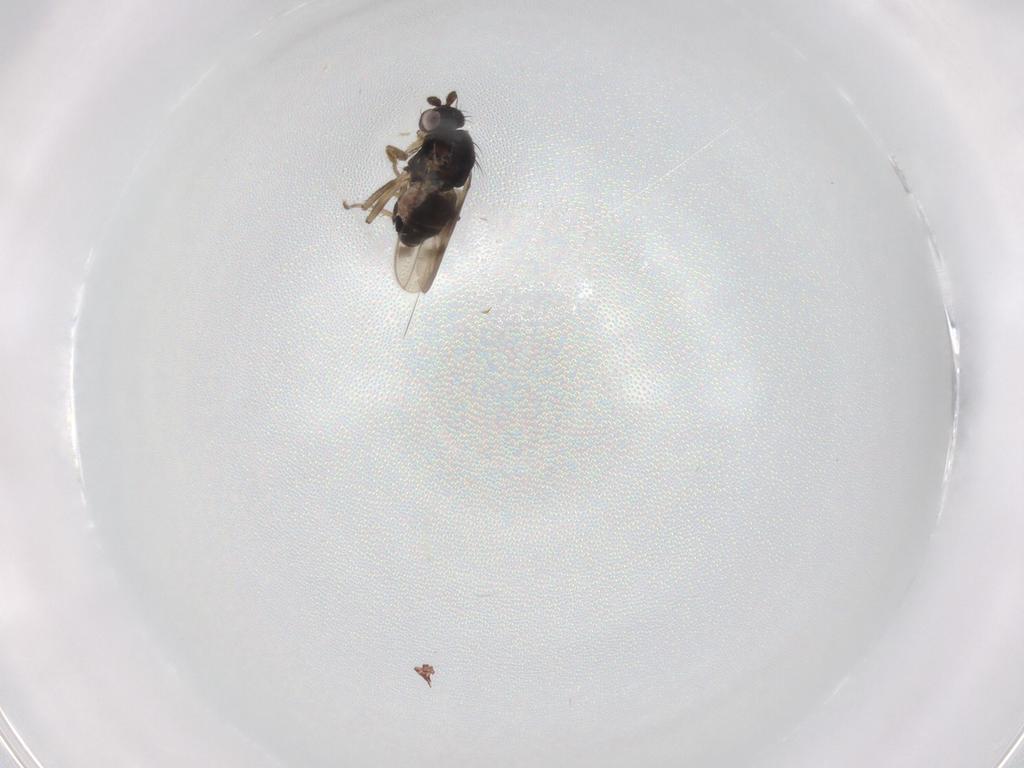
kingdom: Animalia
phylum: Arthropoda
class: Insecta
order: Diptera
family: Sphaeroceridae
